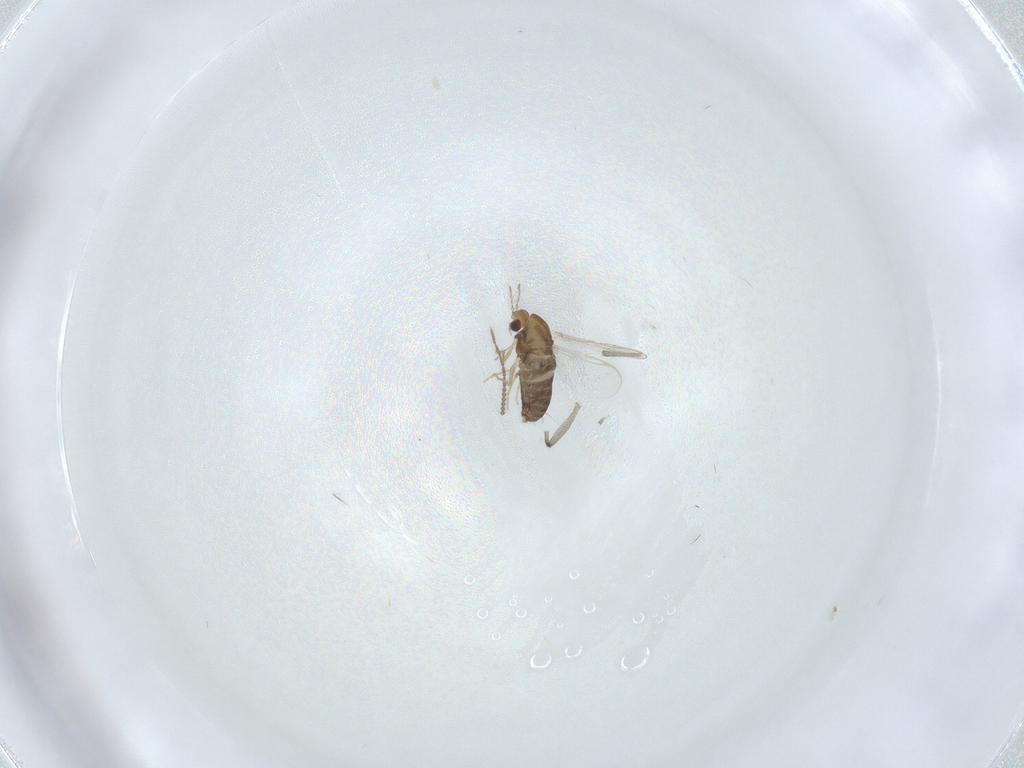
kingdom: Animalia
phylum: Arthropoda
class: Insecta
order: Diptera
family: Chironomidae
